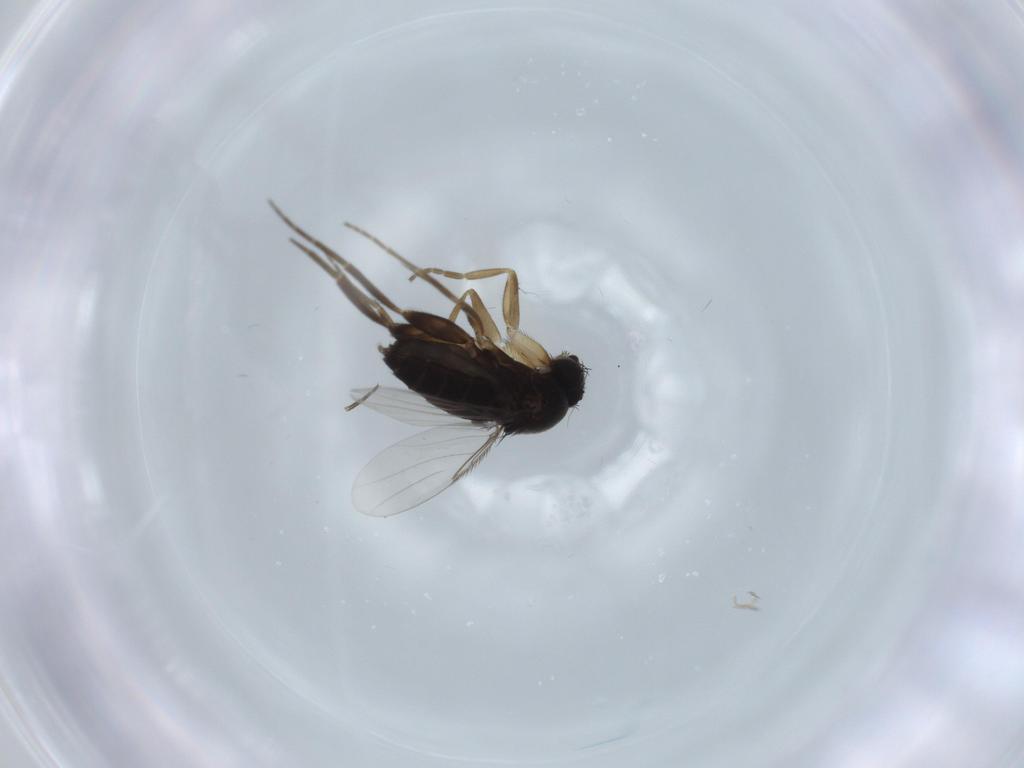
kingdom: Animalia
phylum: Arthropoda
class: Insecta
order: Diptera
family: Phoridae
